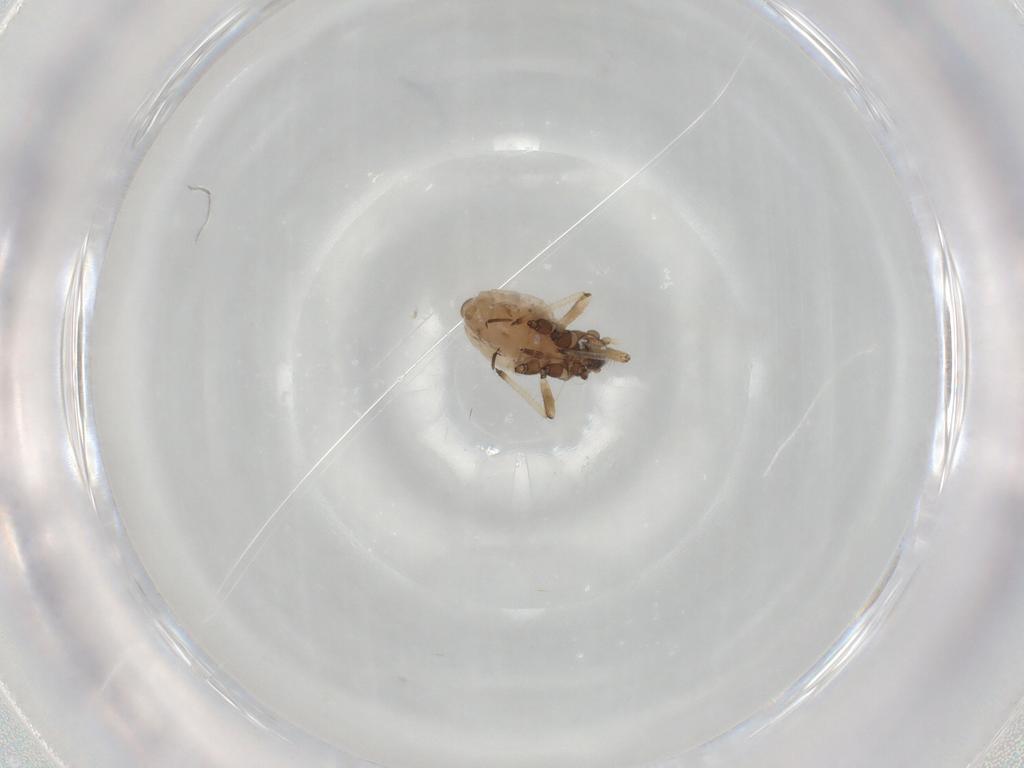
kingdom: Animalia
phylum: Arthropoda
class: Insecta
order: Hemiptera
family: Aphididae
